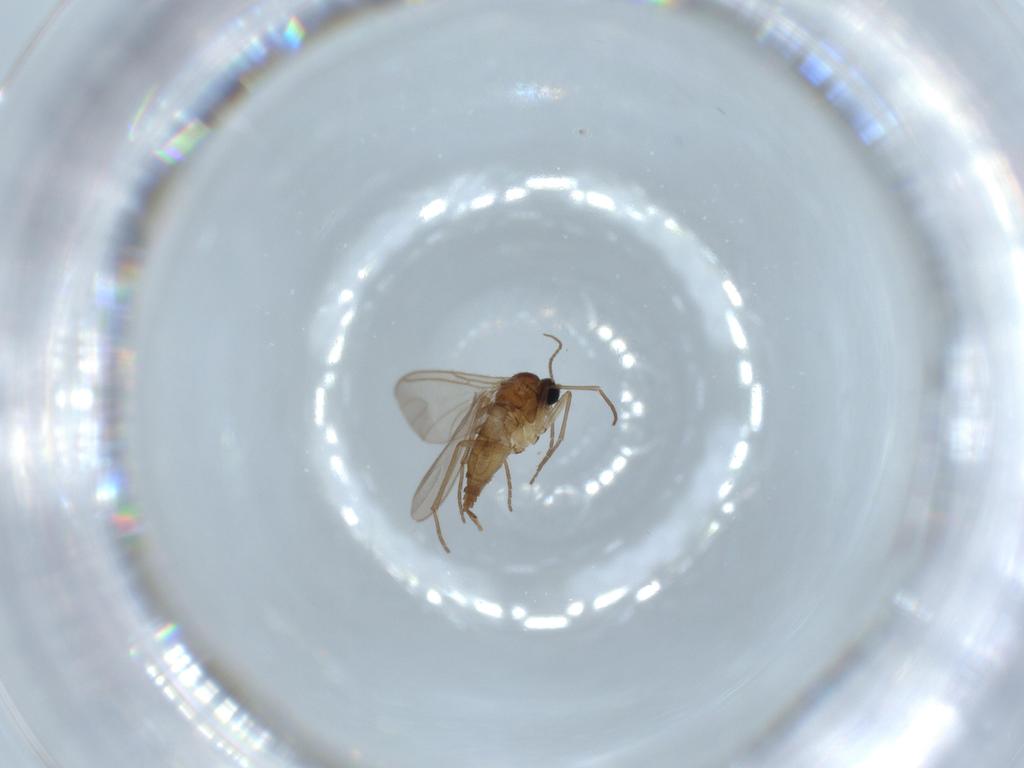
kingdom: Animalia
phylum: Arthropoda
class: Insecta
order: Diptera
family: Sciaridae
